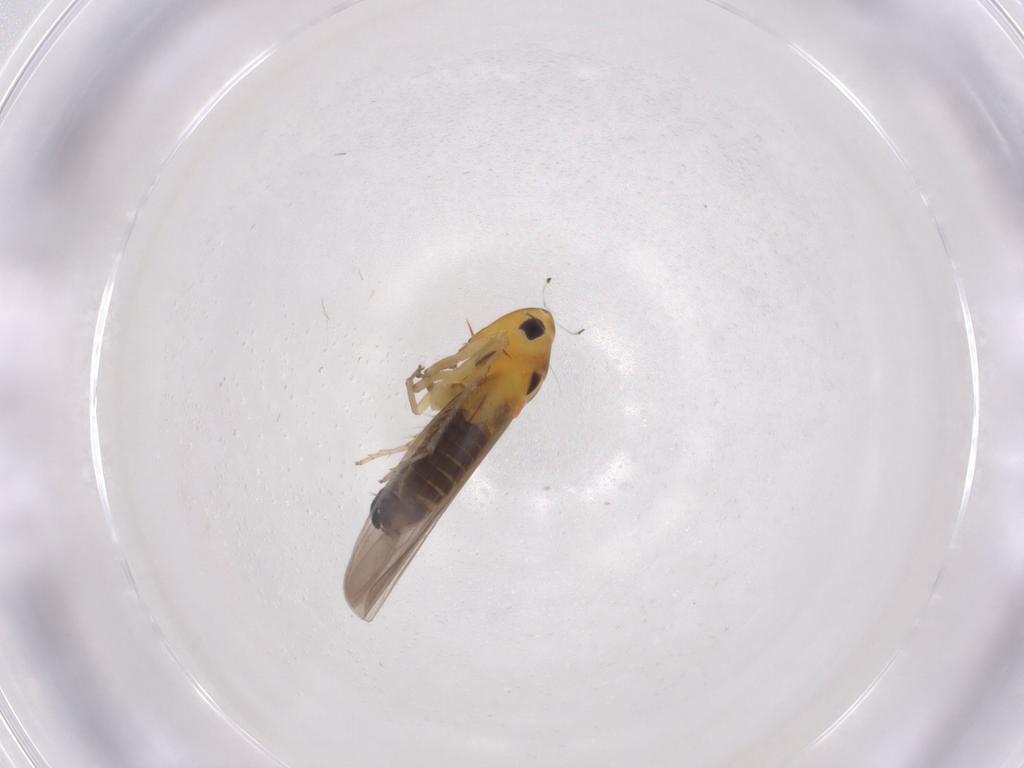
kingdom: Animalia
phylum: Arthropoda
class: Insecta
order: Hemiptera
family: Cicadellidae
